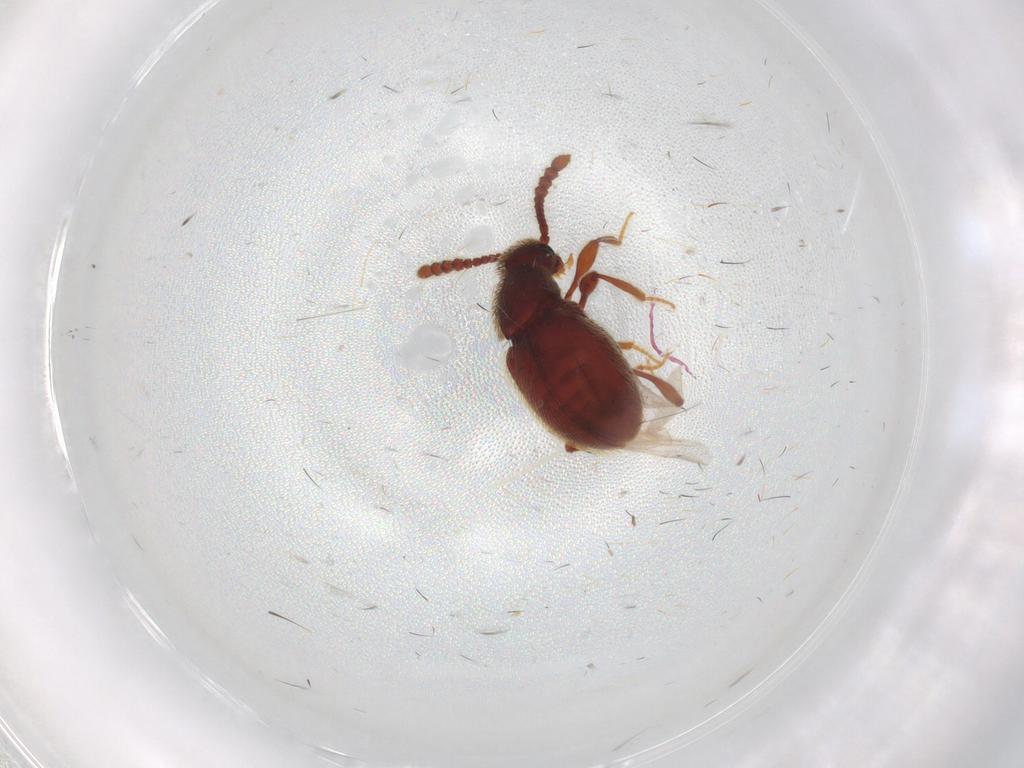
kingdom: Animalia
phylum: Arthropoda
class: Insecta
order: Coleoptera
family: Staphylinidae
